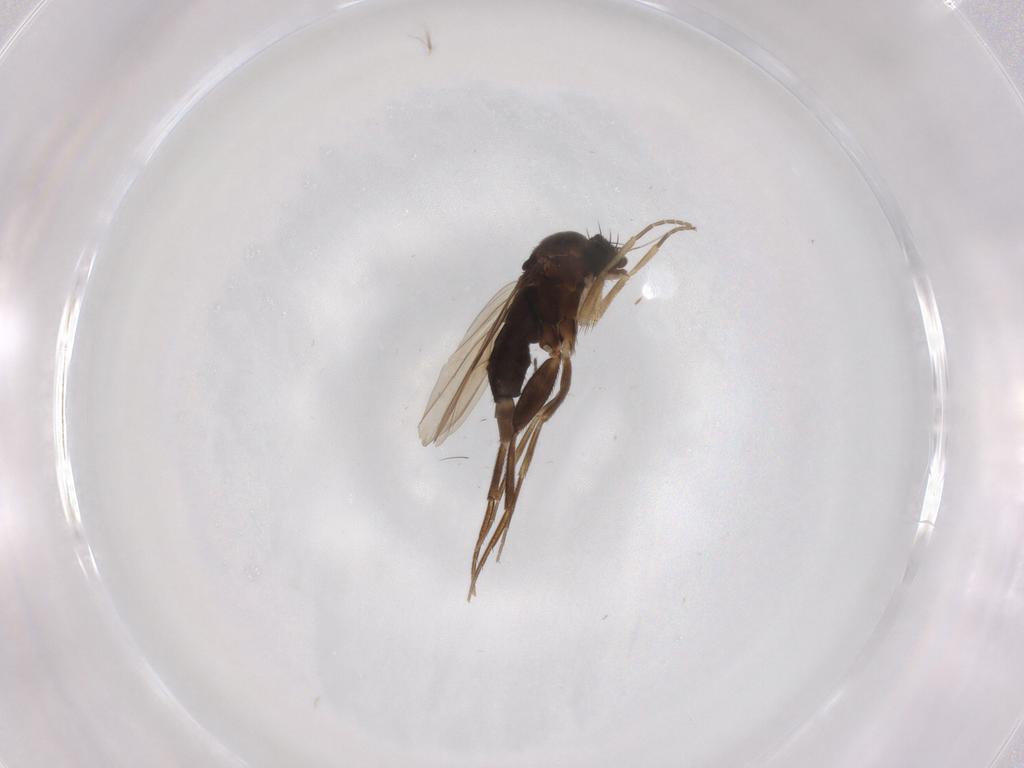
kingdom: Animalia
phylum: Arthropoda
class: Insecta
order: Diptera
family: Phoridae
